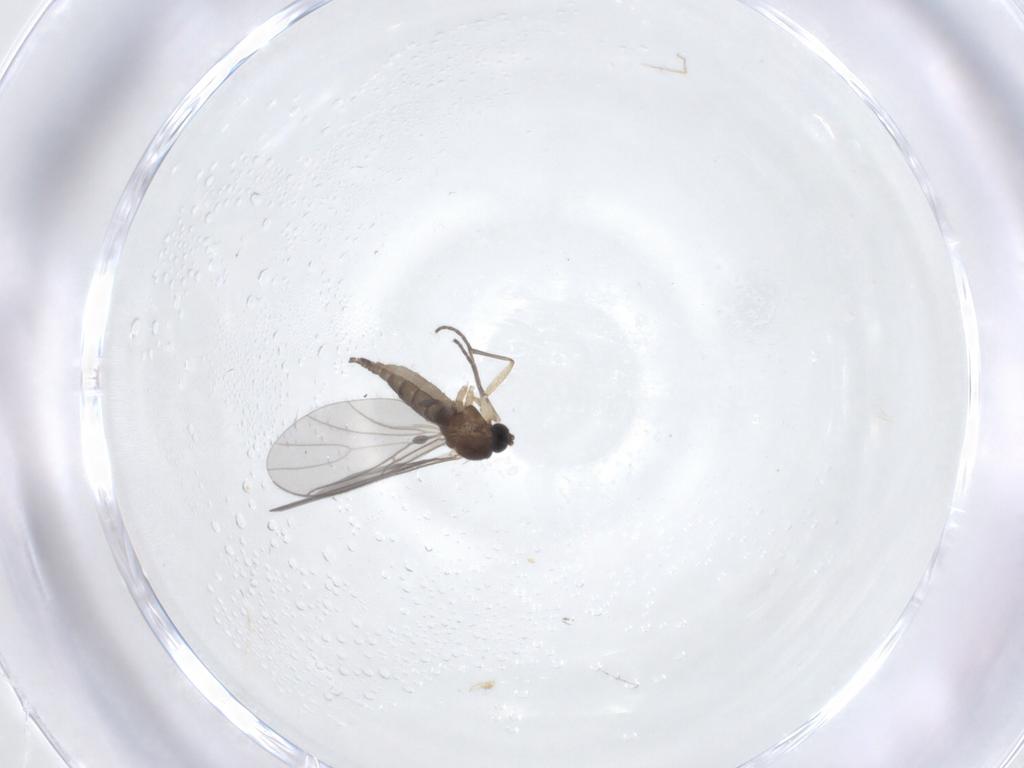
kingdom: Animalia
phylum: Arthropoda
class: Insecta
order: Diptera
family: Sciaridae
